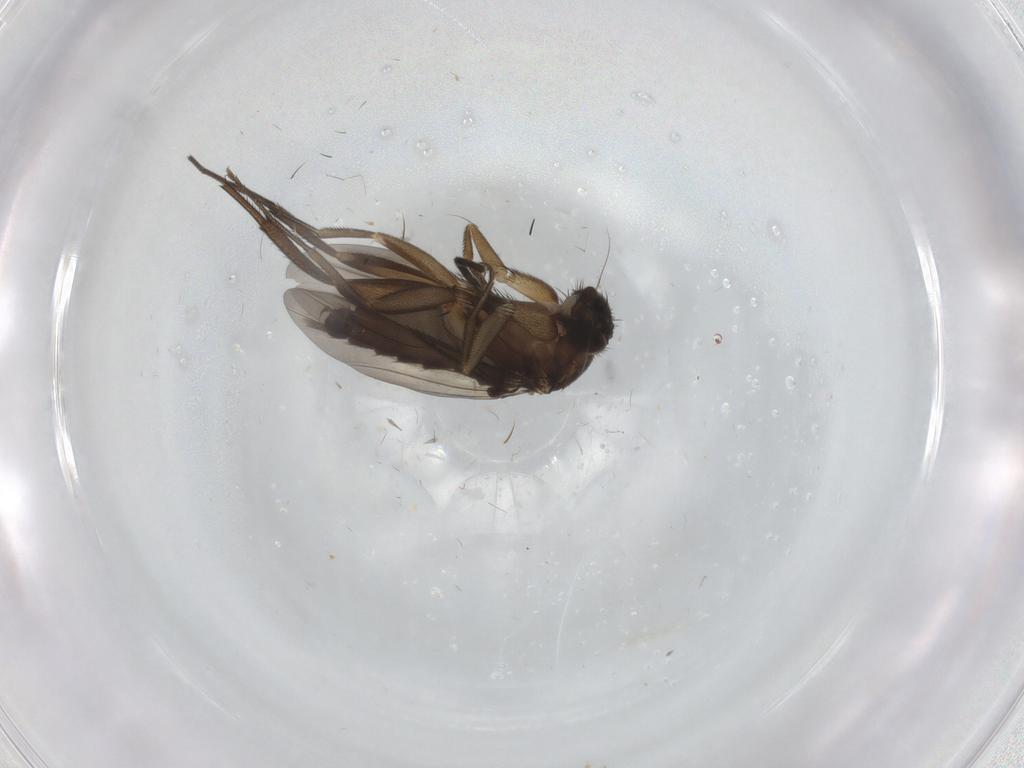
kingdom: Animalia
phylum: Arthropoda
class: Insecta
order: Diptera
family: Phoridae
